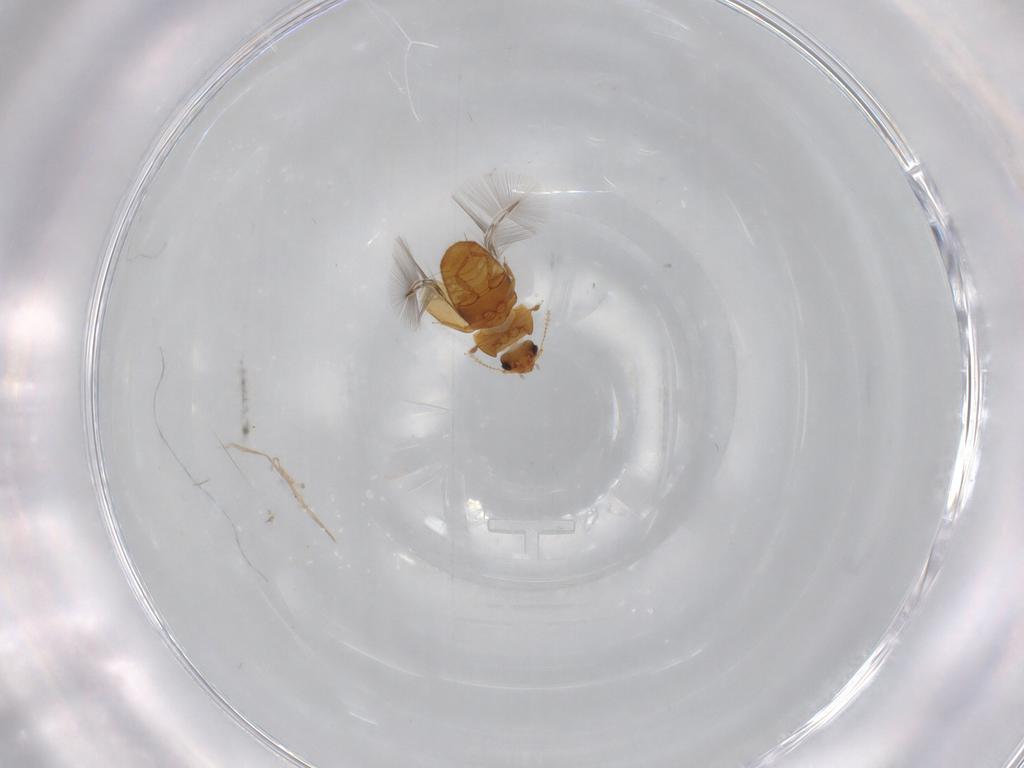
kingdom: Animalia
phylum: Arthropoda
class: Insecta
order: Coleoptera
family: Ptiliidae
